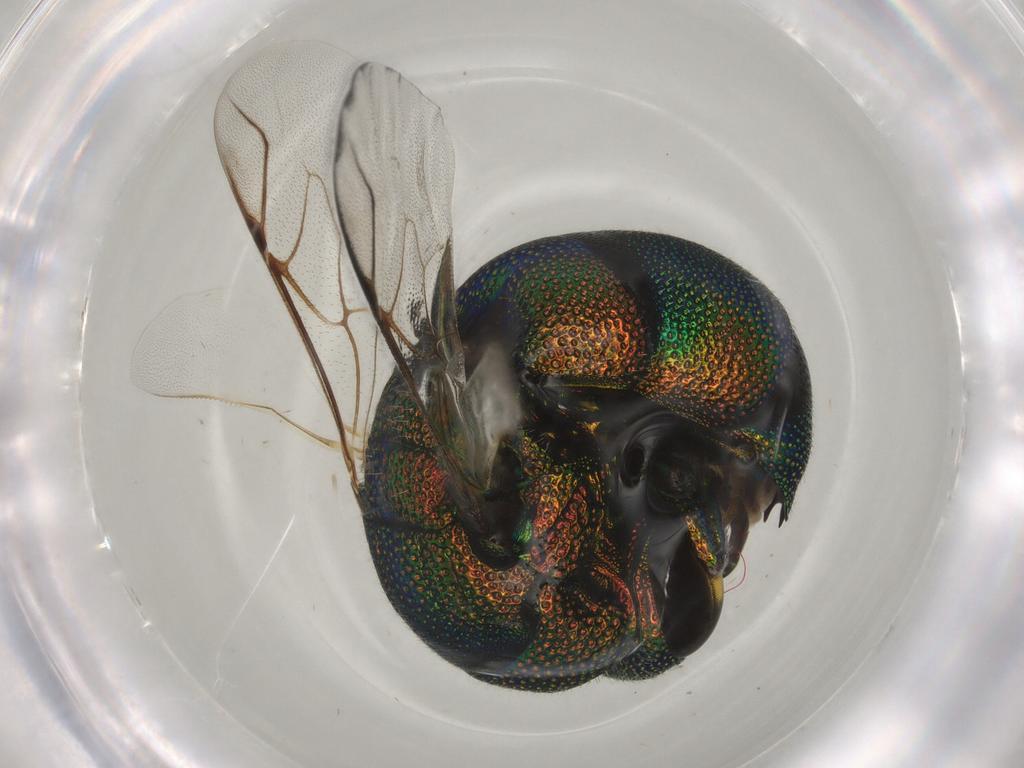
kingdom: Animalia
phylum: Arthropoda
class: Insecta
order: Hymenoptera
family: Chrysididae
